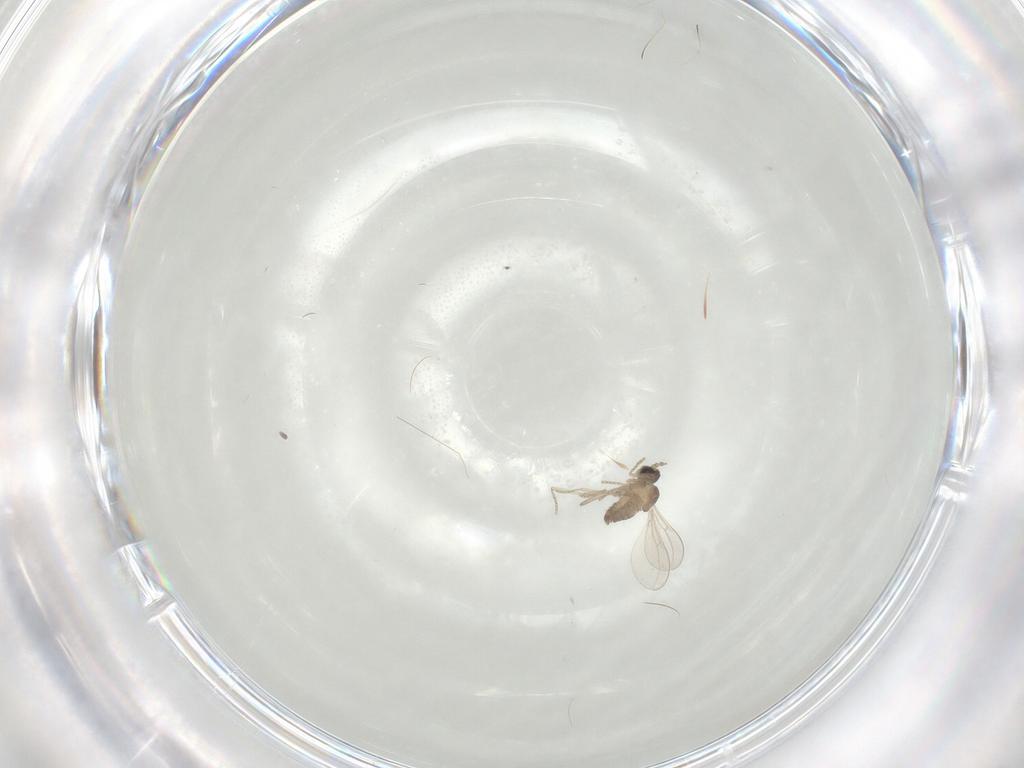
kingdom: Animalia
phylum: Arthropoda
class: Insecta
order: Diptera
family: Cecidomyiidae
